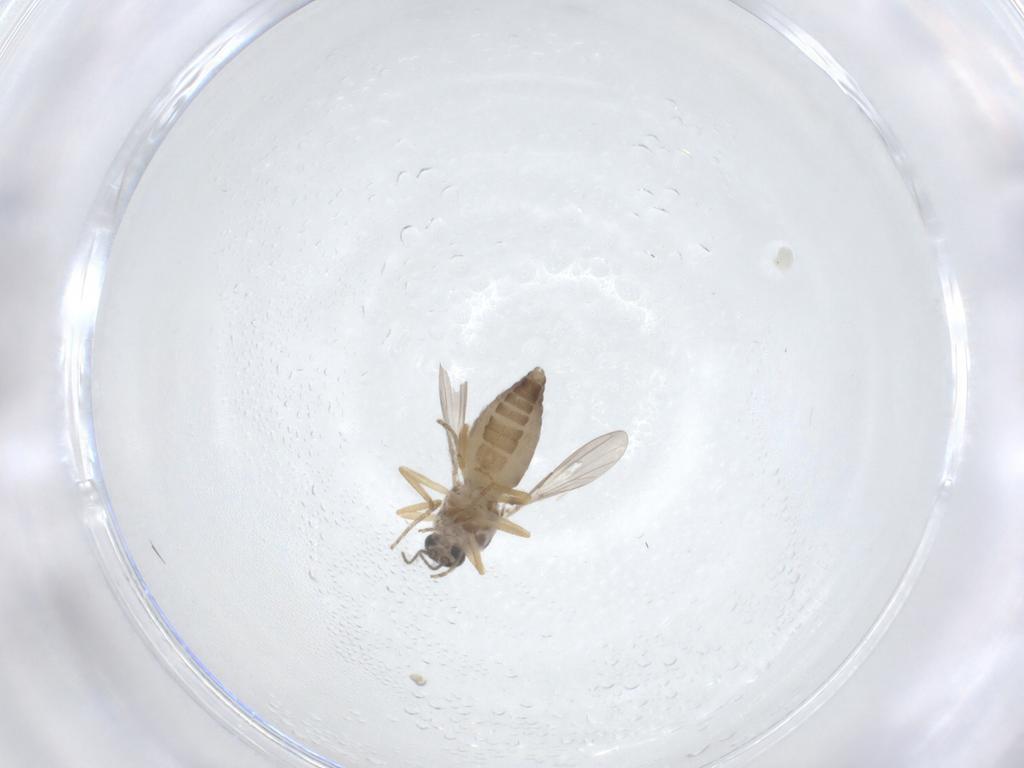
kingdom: Animalia
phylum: Arthropoda
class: Insecta
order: Diptera
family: Ceratopogonidae
